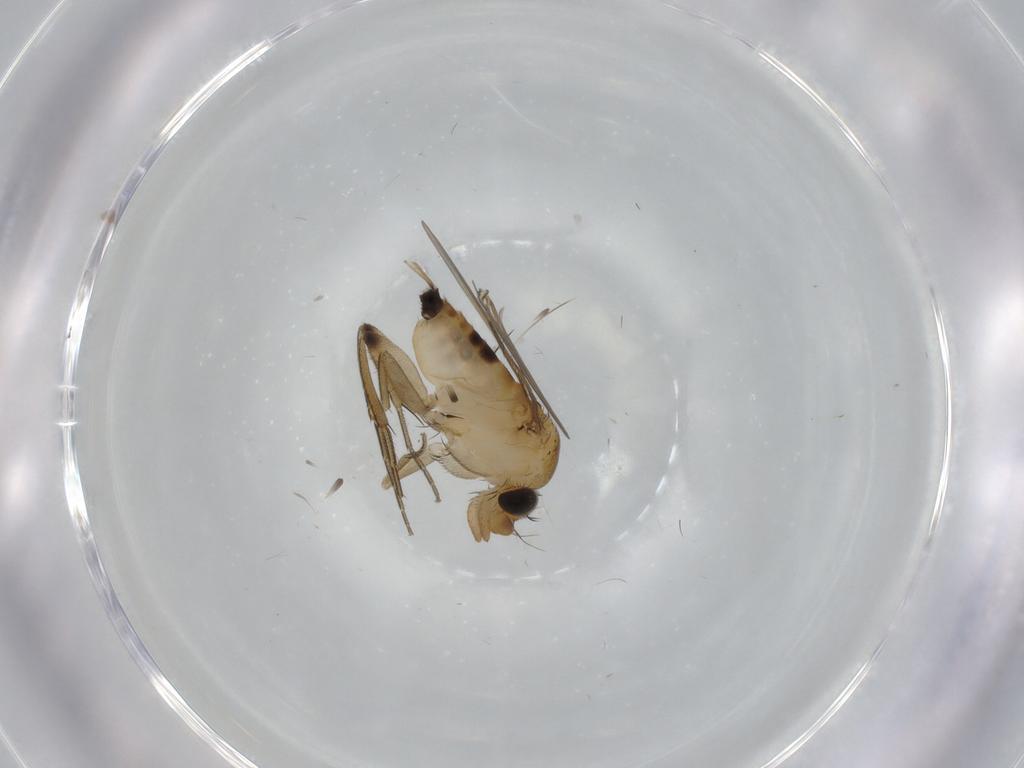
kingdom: Animalia
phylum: Arthropoda
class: Insecta
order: Diptera
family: Phoridae
